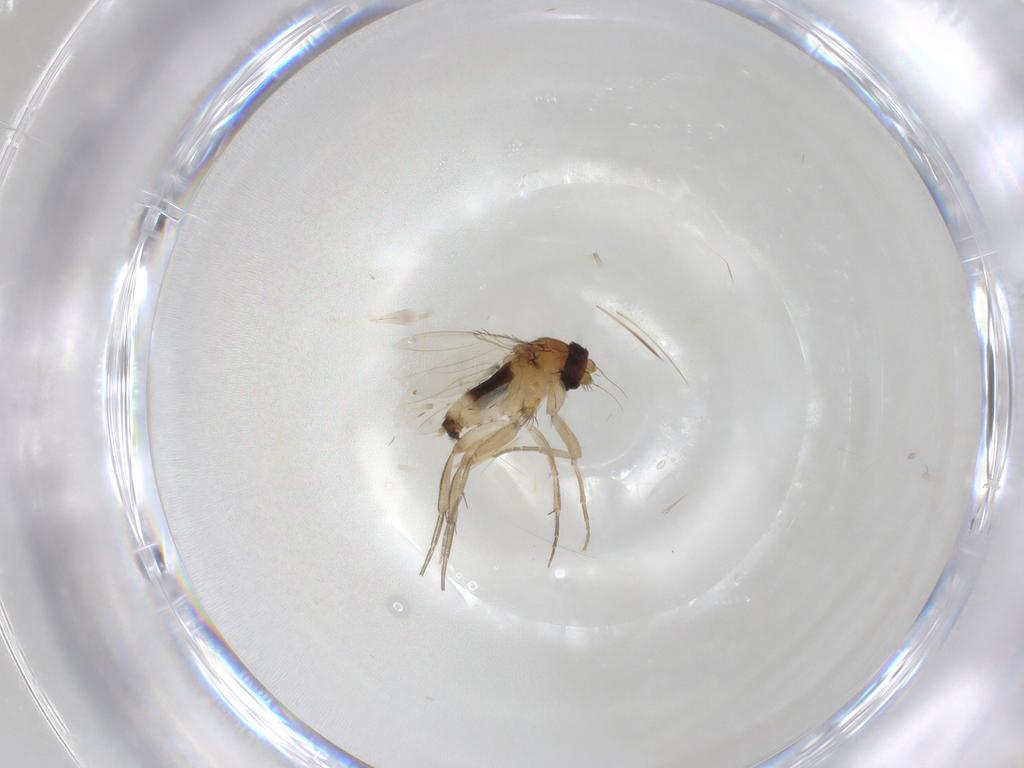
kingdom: Animalia
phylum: Arthropoda
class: Insecta
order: Diptera
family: Phoridae
